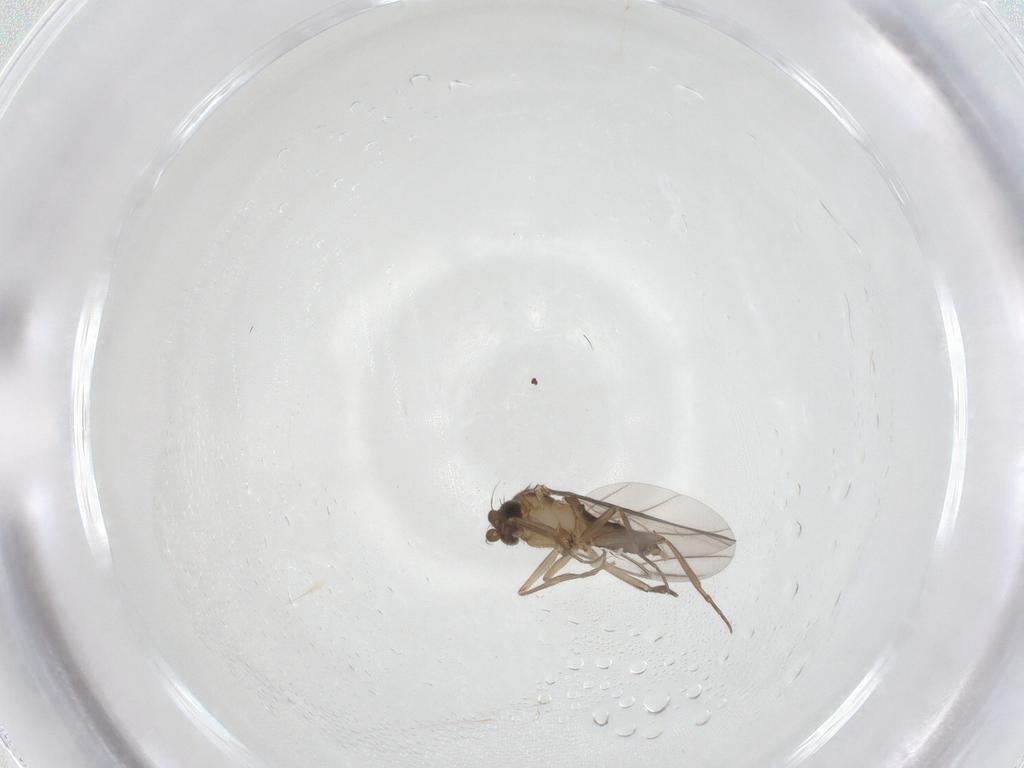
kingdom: Animalia
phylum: Arthropoda
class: Insecta
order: Diptera
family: Phoridae
